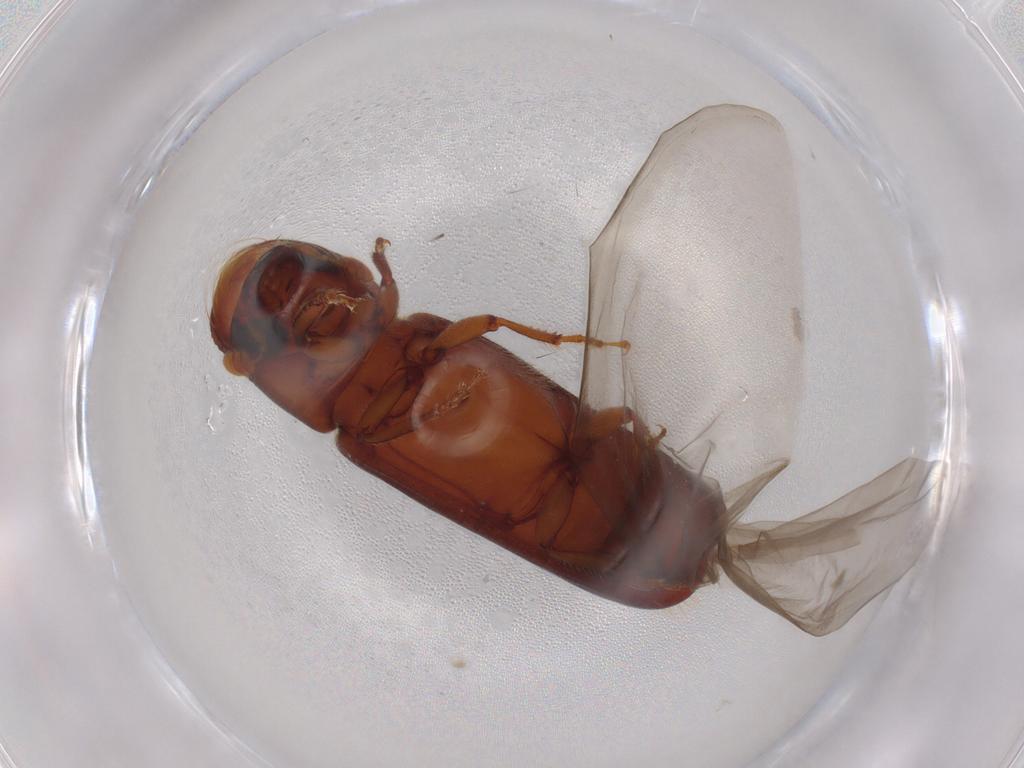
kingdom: Animalia
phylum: Arthropoda
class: Insecta
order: Coleoptera
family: Curculionidae
